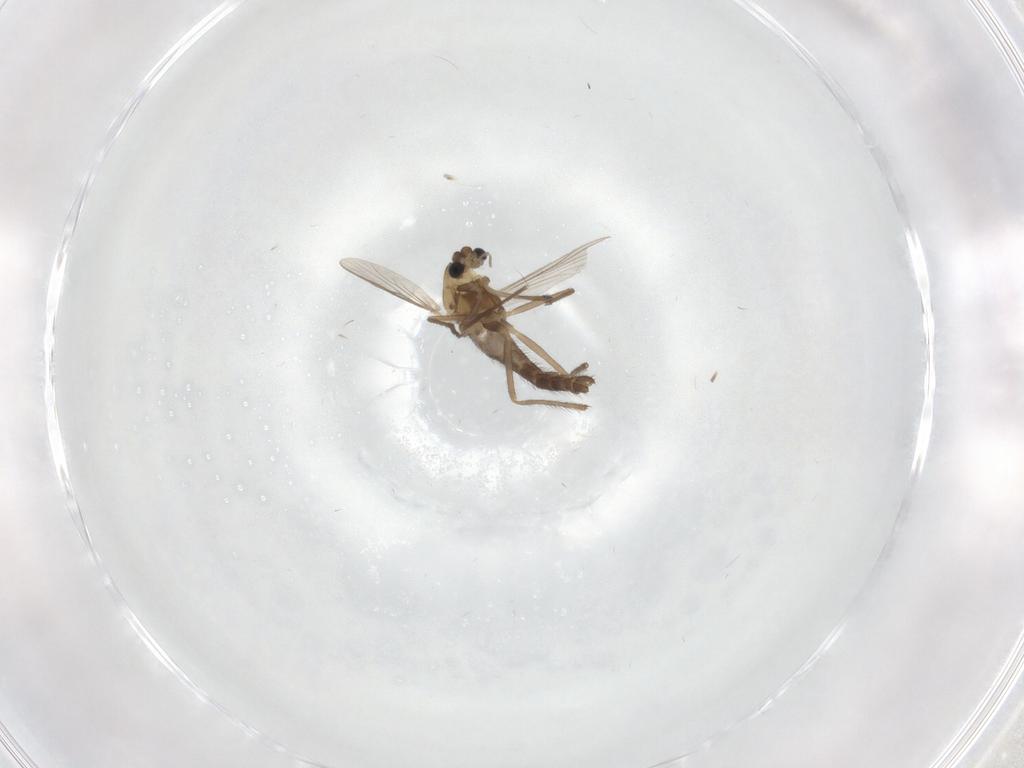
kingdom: Animalia
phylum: Arthropoda
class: Insecta
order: Diptera
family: Chironomidae
